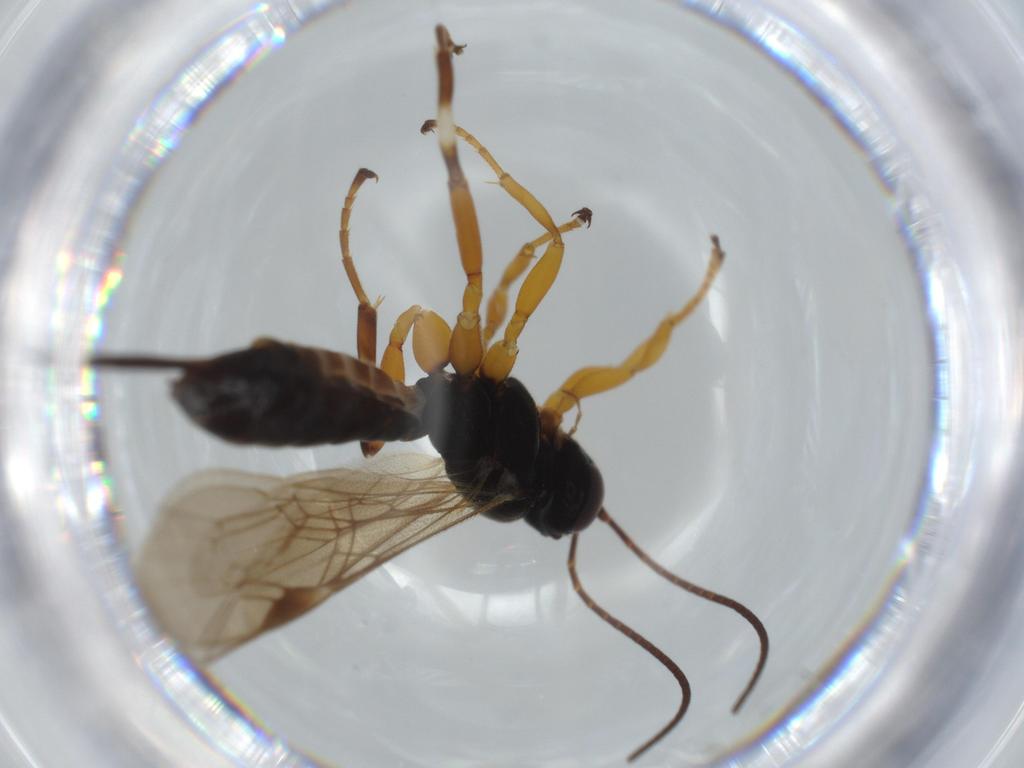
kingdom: Animalia
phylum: Arthropoda
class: Insecta
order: Hymenoptera
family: Ichneumonidae
